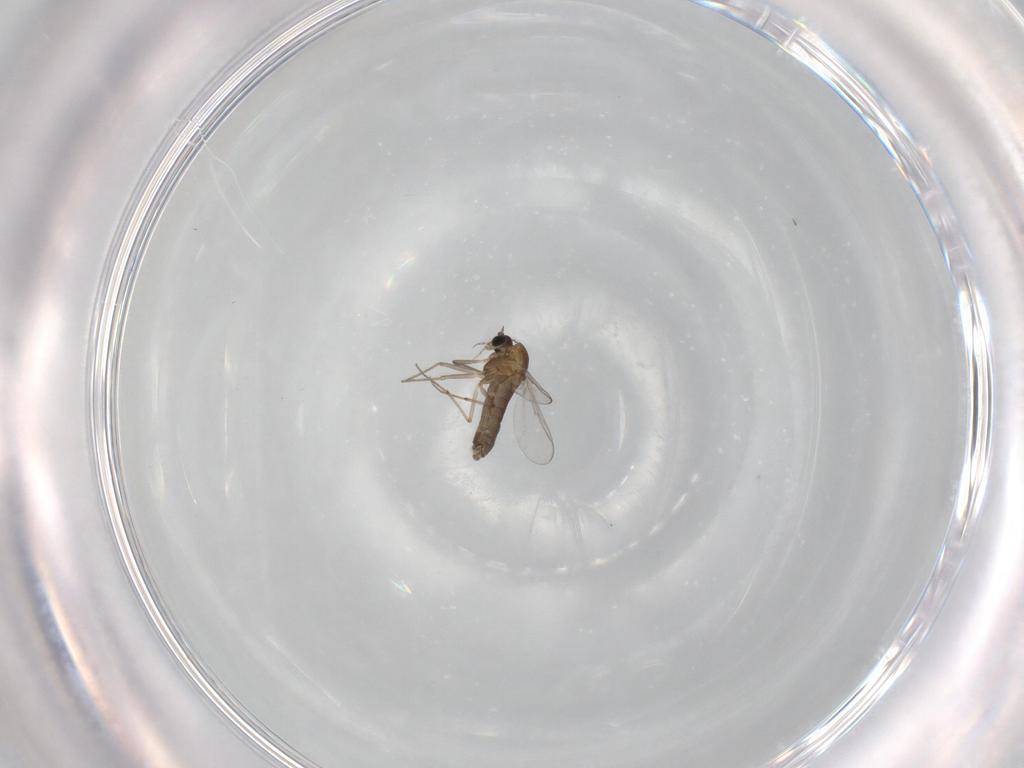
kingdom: Animalia
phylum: Arthropoda
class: Insecta
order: Diptera
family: Chironomidae
